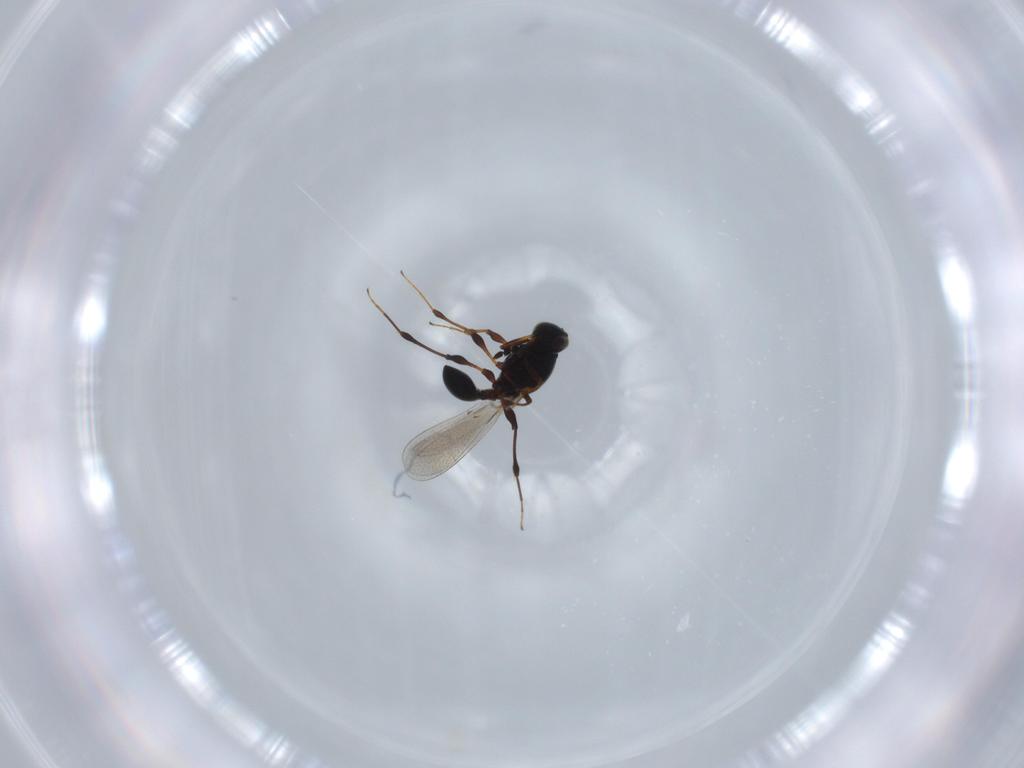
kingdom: Animalia
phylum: Arthropoda
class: Insecta
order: Hymenoptera
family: Platygastridae
